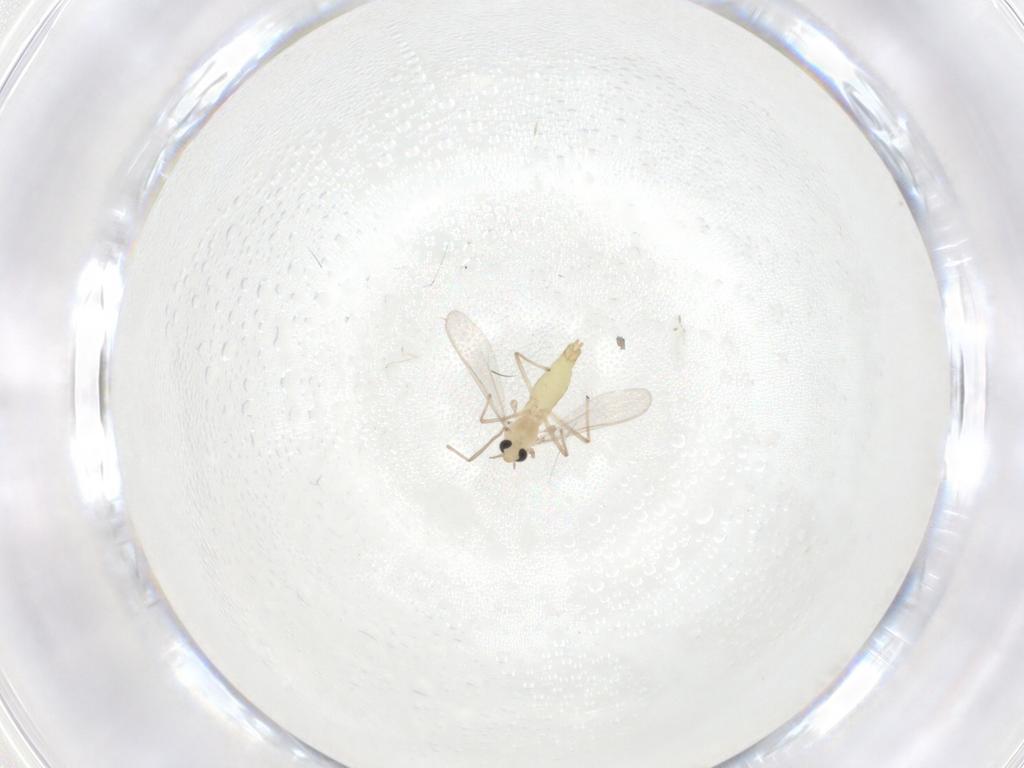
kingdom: Animalia
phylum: Arthropoda
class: Insecta
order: Diptera
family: Chironomidae
